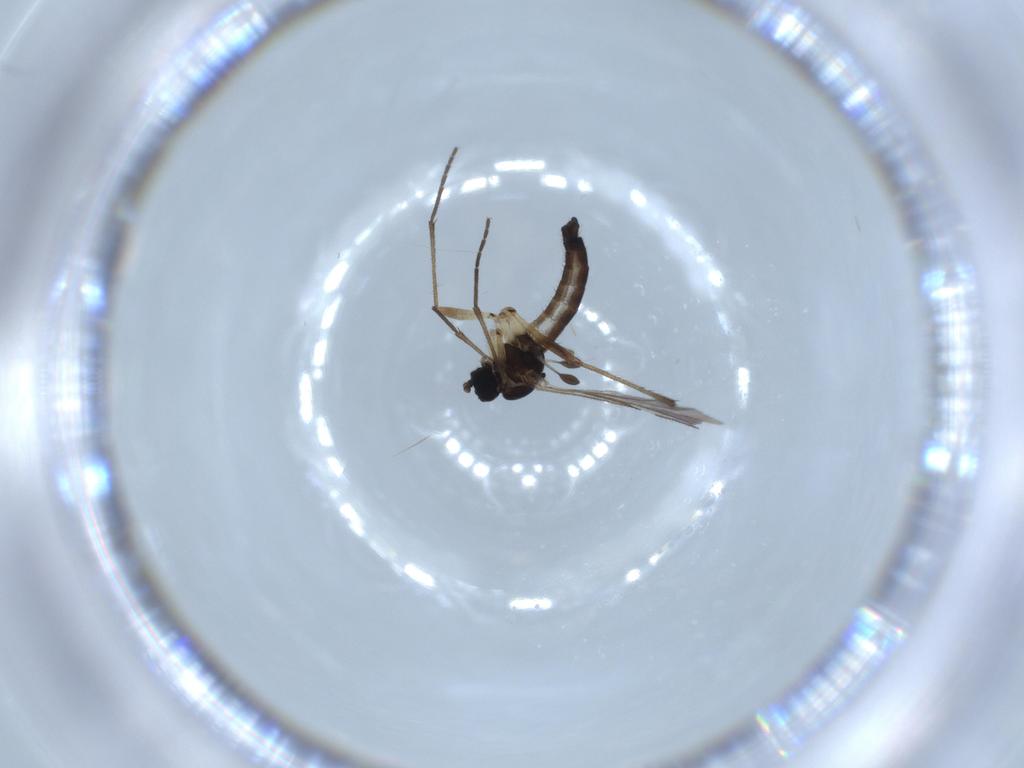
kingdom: Animalia
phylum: Arthropoda
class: Insecta
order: Diptera
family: Sciaridae
